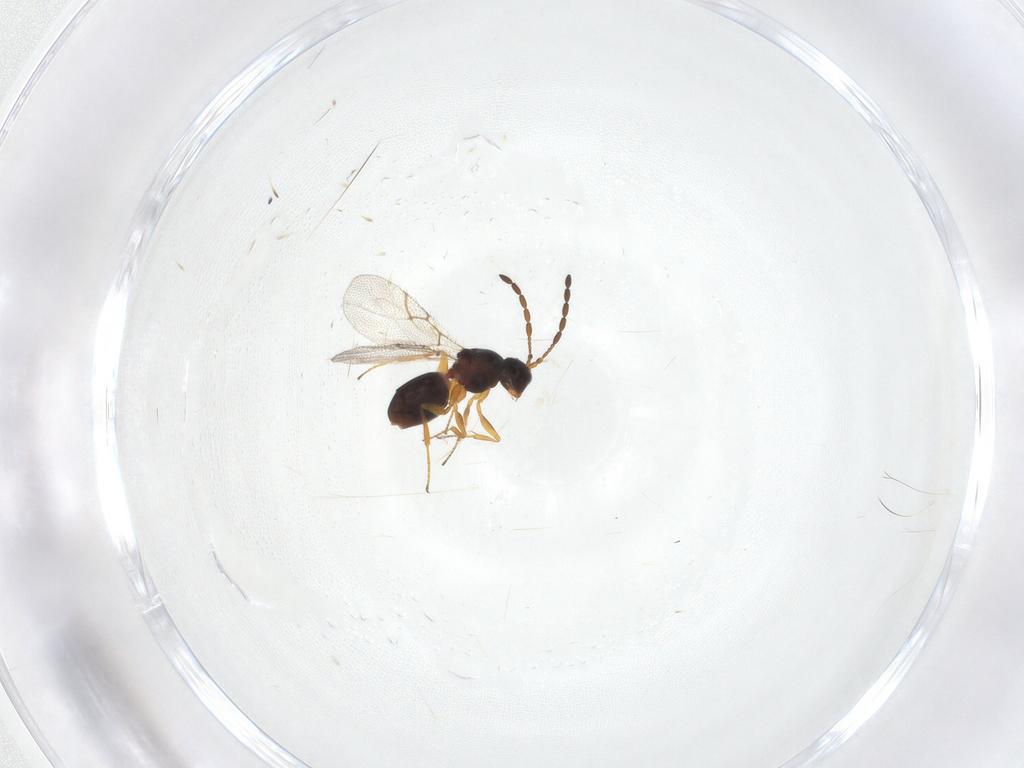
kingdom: Animalia
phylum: Arthropoda
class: Insecta
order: Hymenoptera
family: Figitidae
